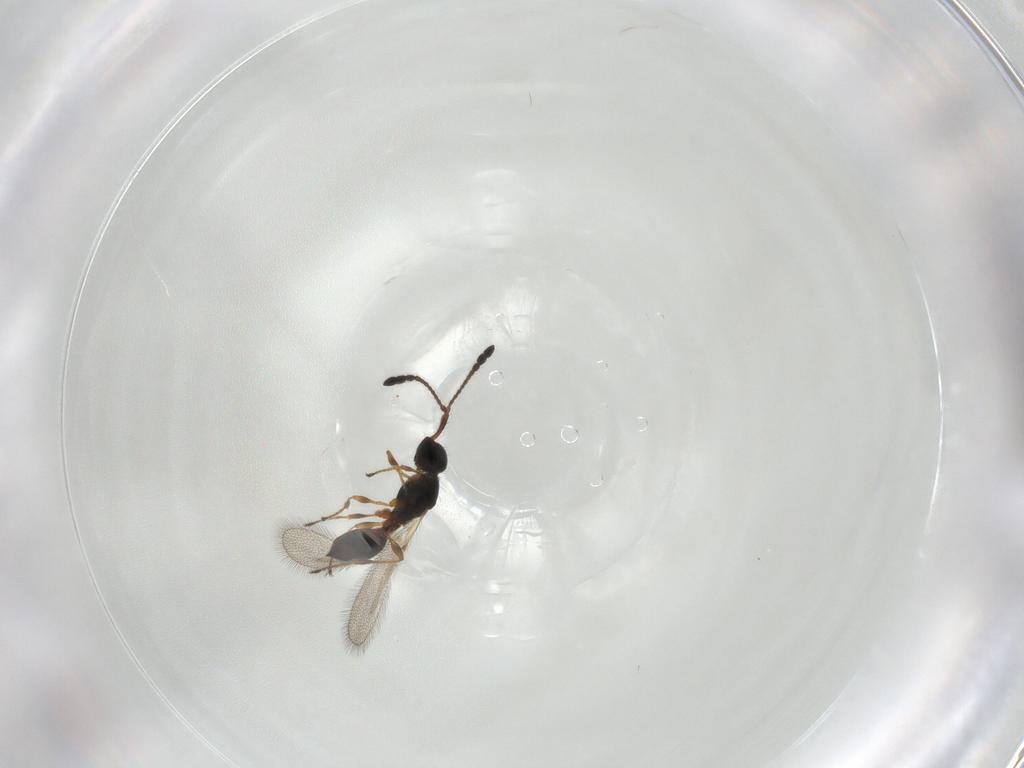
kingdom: Animalia
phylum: Arthropoda
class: Insecta
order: Hymenoptera
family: Diapriidae
